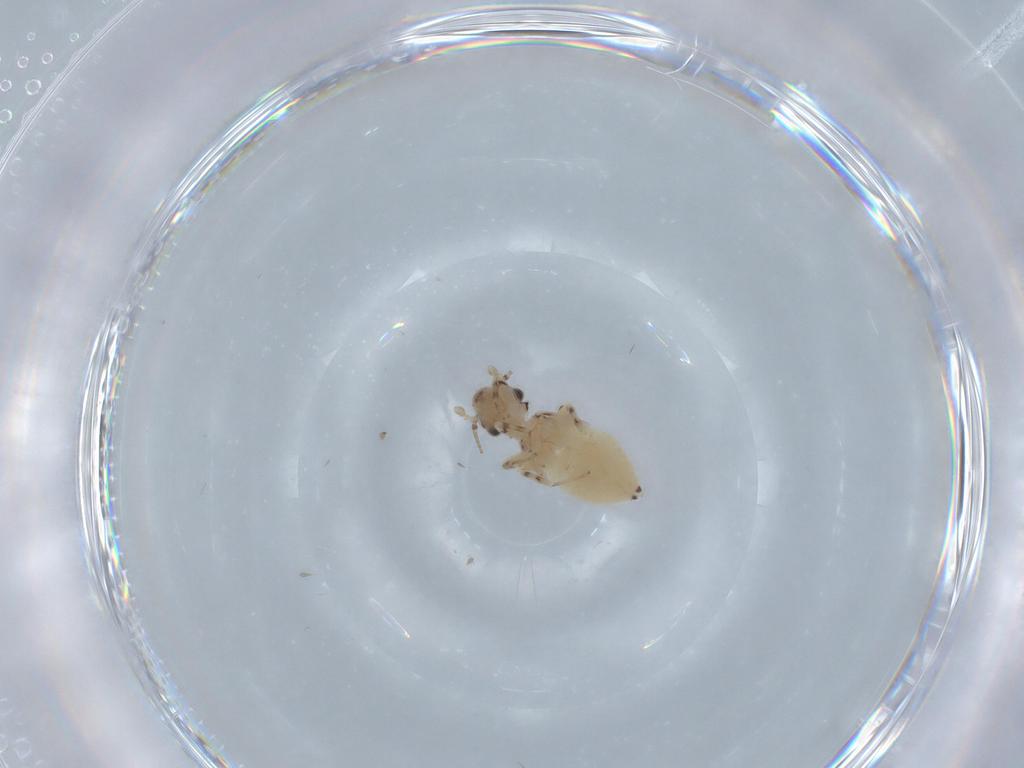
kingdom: Animalia
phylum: Arthropoda
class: Insecta
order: Psocodea
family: Lepidopsocidae
